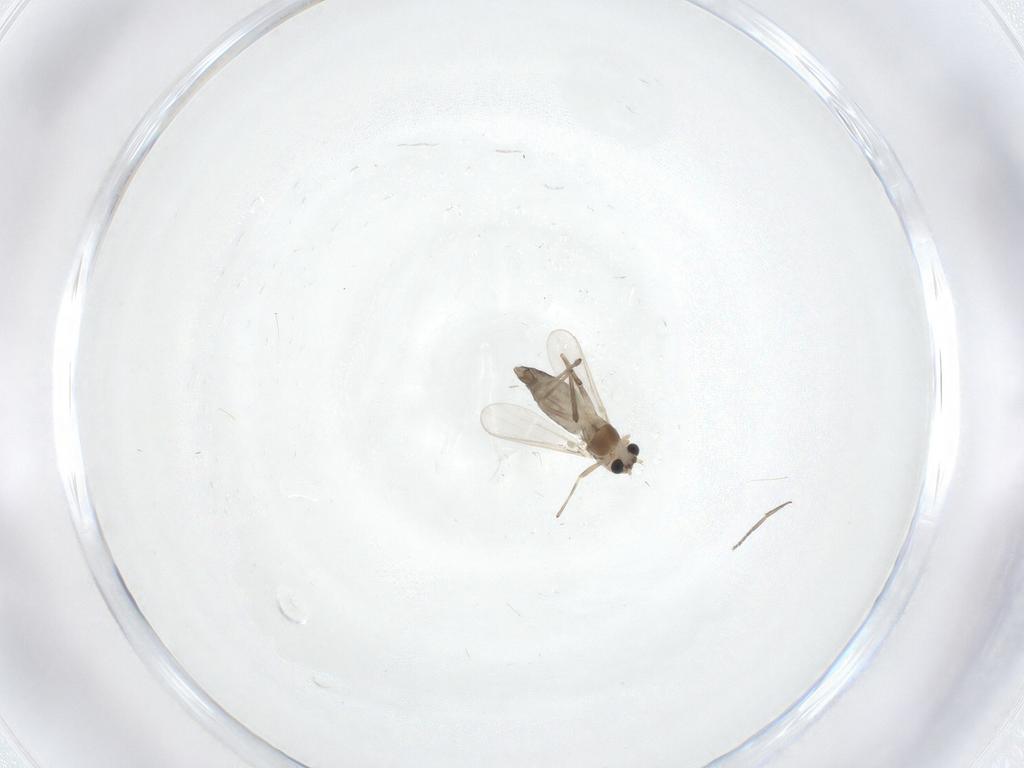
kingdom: Animalia
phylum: Arthropoda
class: Insecta
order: Diptera
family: Chironomidae
